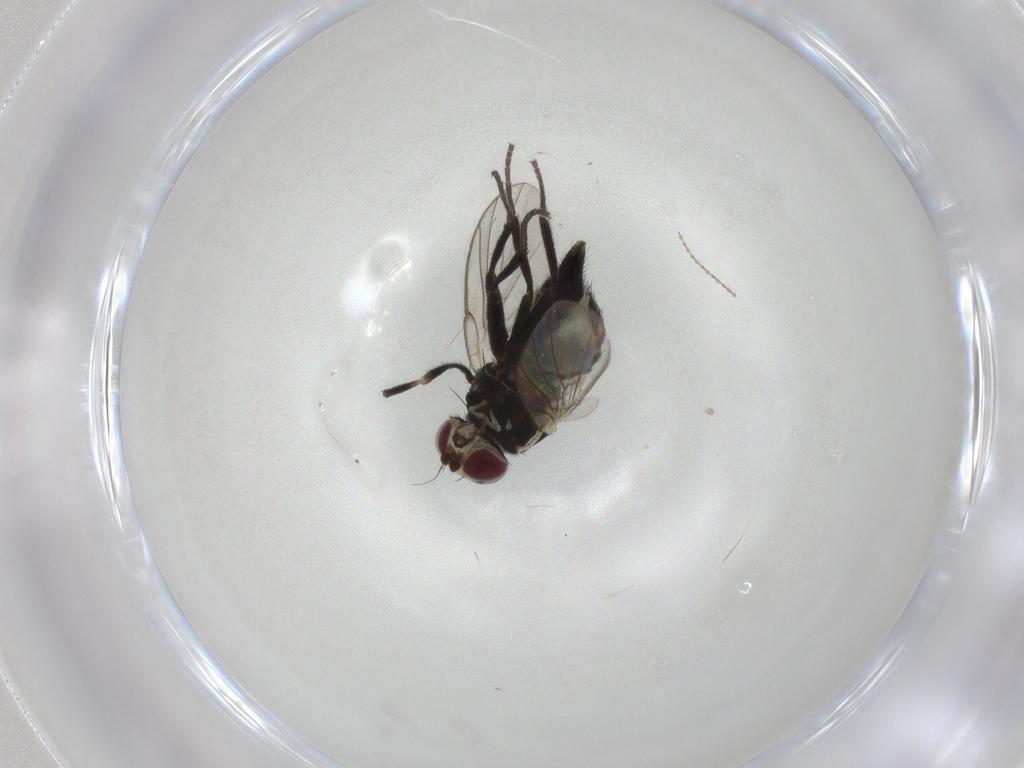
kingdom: Animalia
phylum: Arthropoda
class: Insecta
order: Diptera
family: Agromyzidae
